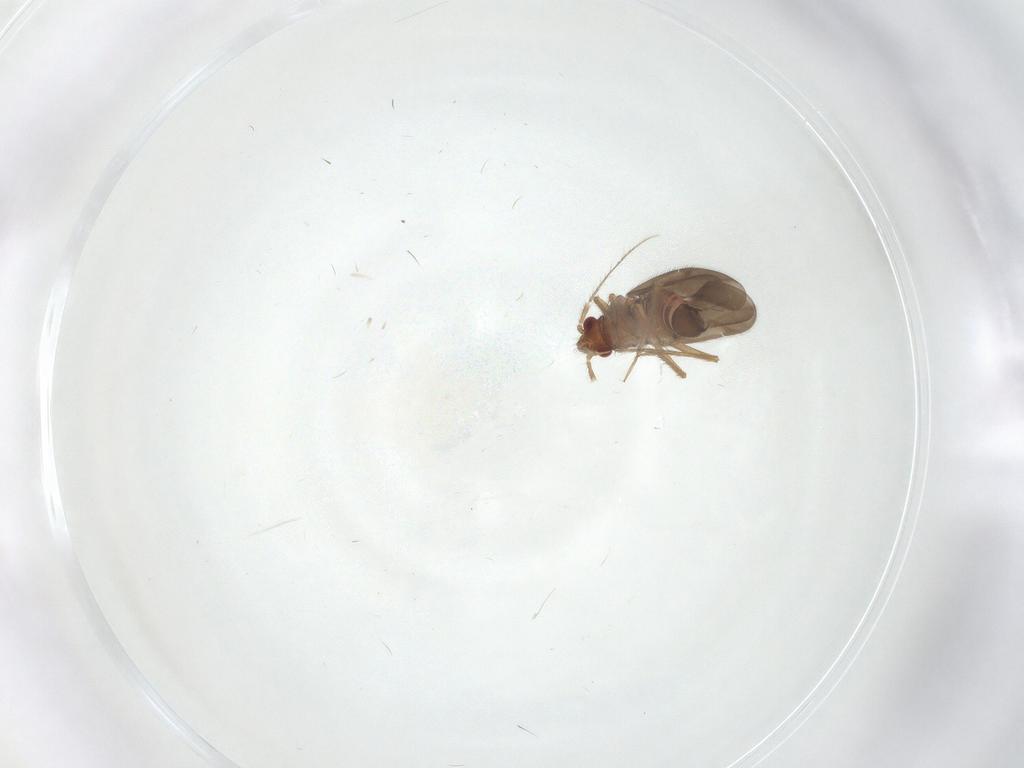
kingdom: Animalia
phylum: Arthropoda
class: Insecta
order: Hemiptera
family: Ceratocombidae
